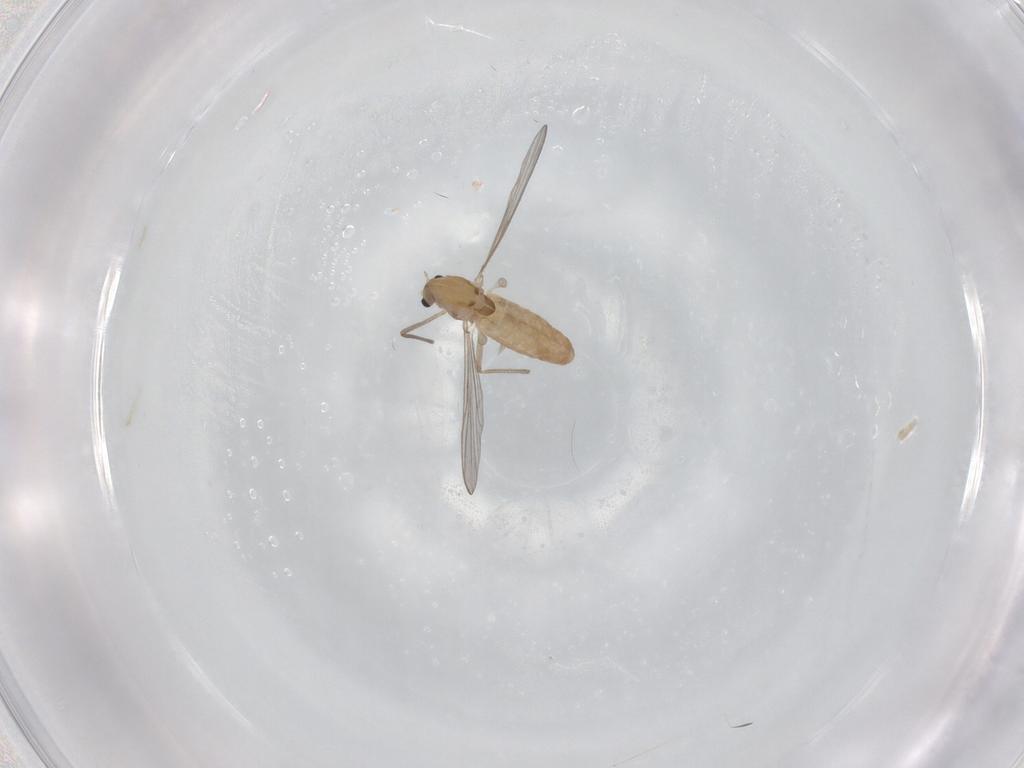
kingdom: Animalia
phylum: Arthropoda
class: Insecta
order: Diptera
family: Chironomidae
